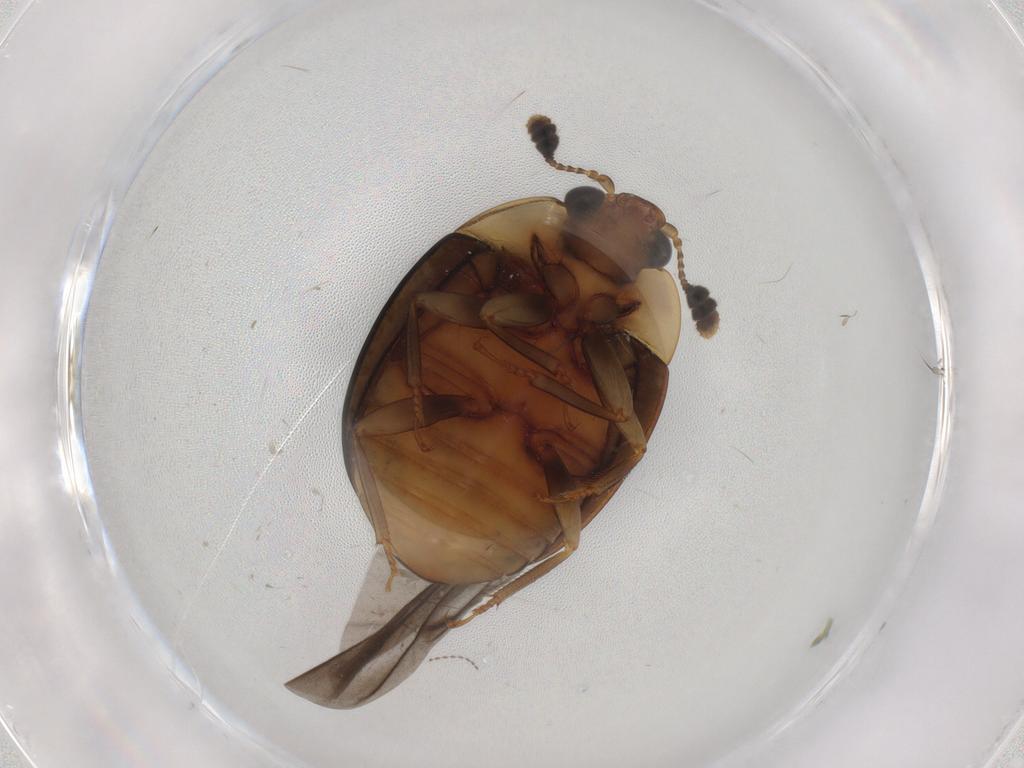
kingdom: Animalia
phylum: Arthropoda
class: Insecta
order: Coleoptera
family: Nitidulidae
